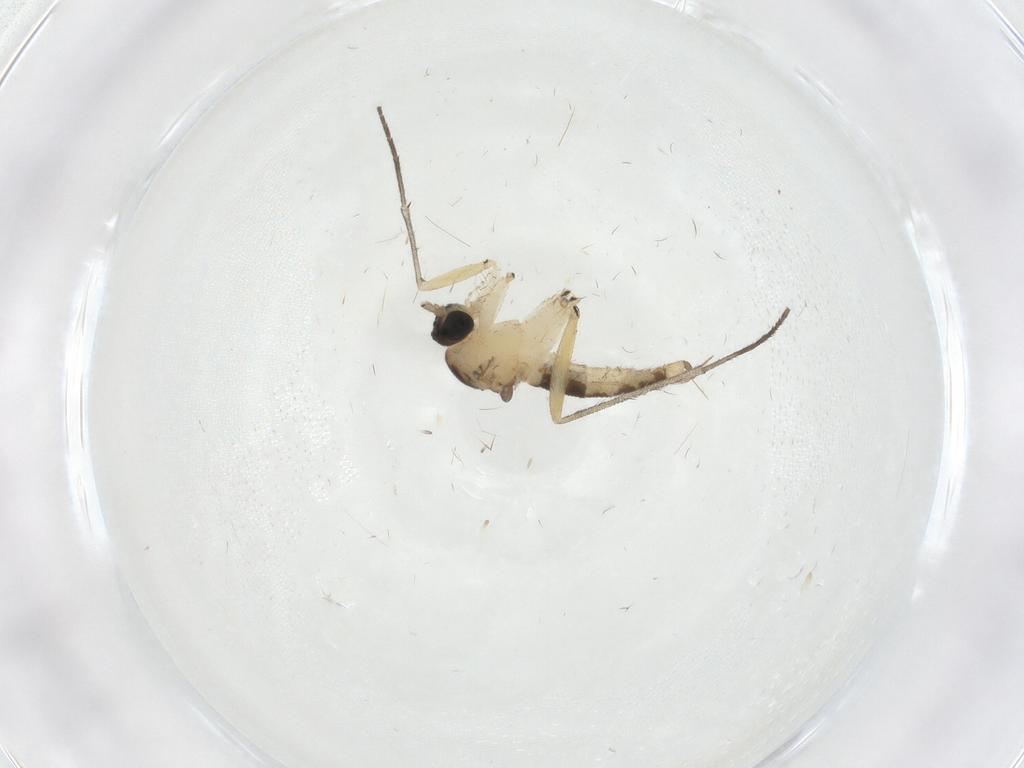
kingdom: Animalia
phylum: Arthropoda
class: Insecta
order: Diptera
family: Sciaridae
